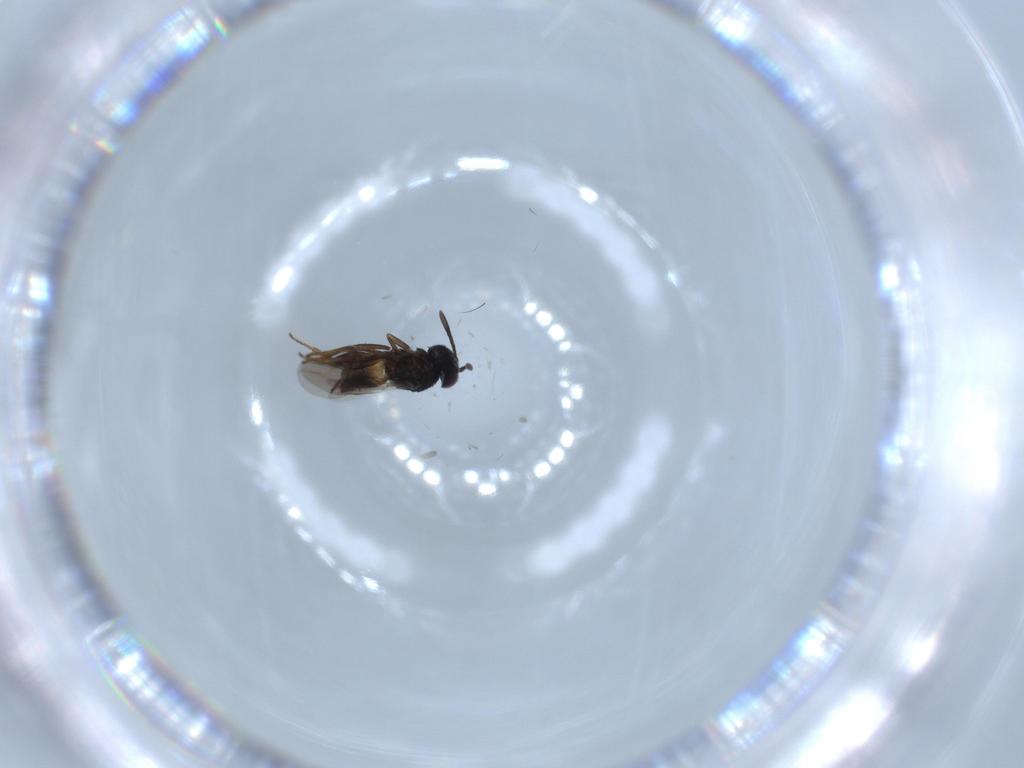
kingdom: Animalia
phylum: Arthropoda
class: Insecta
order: Hymenoptera
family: Encyrtidae
